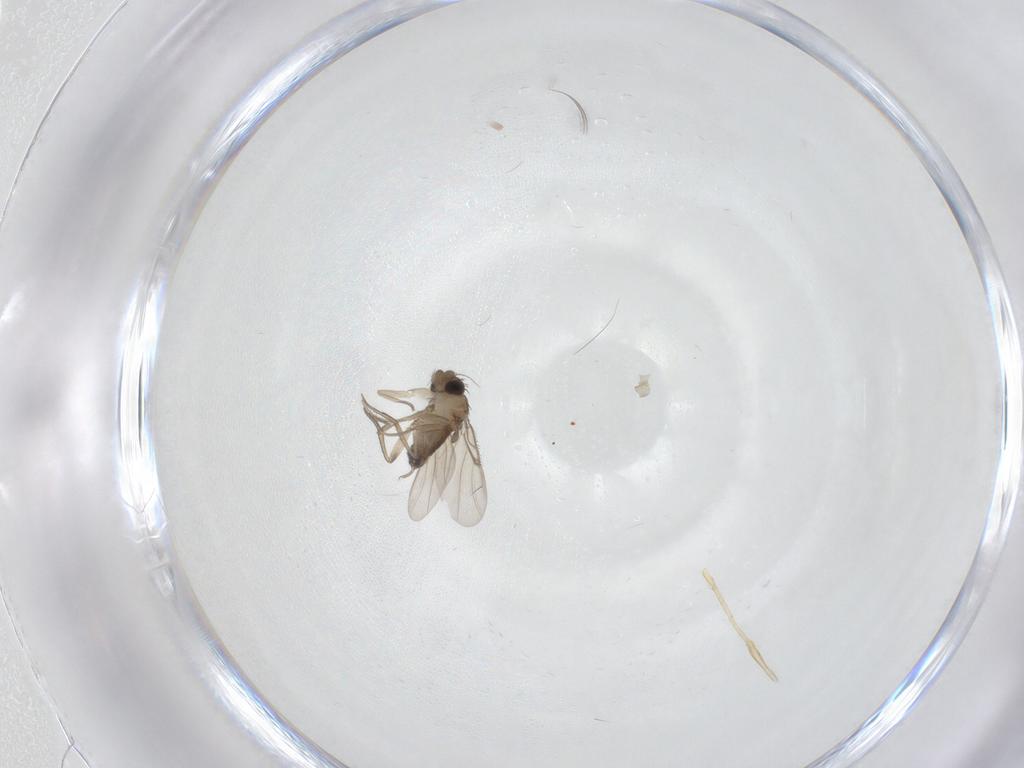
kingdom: Animalia
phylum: Arthropoda
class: Insecta
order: Diptera
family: Phoridae
